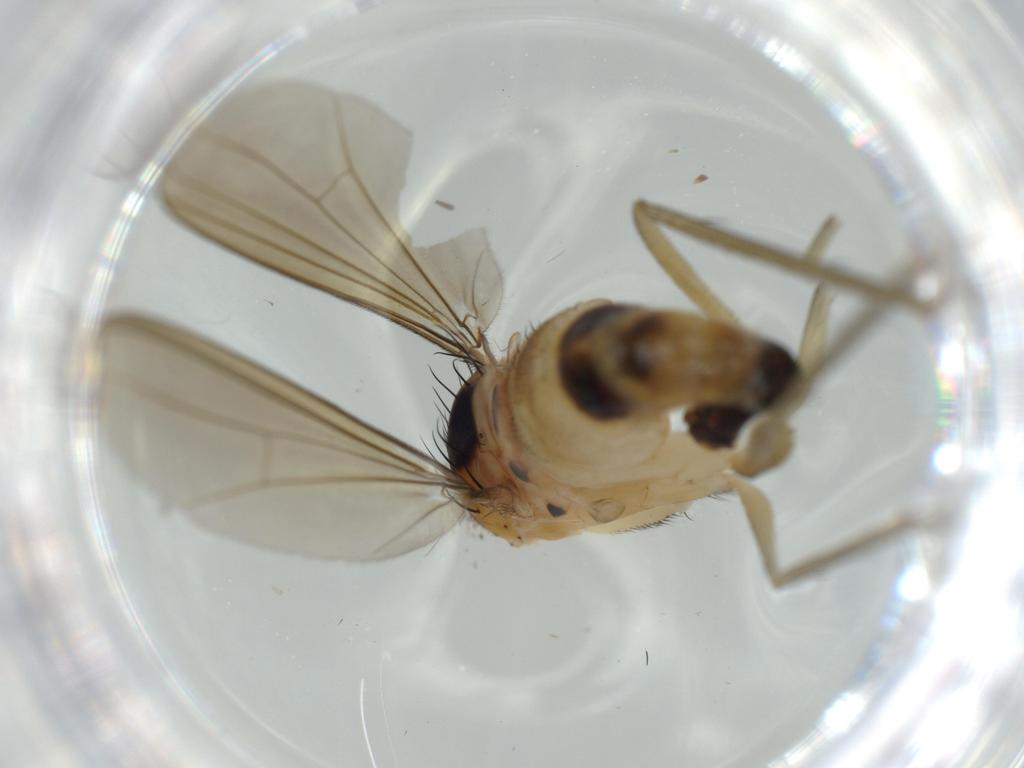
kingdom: Animalia
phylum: Arthropoda
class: Insecta
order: Diptera
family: Dolichopodidae
